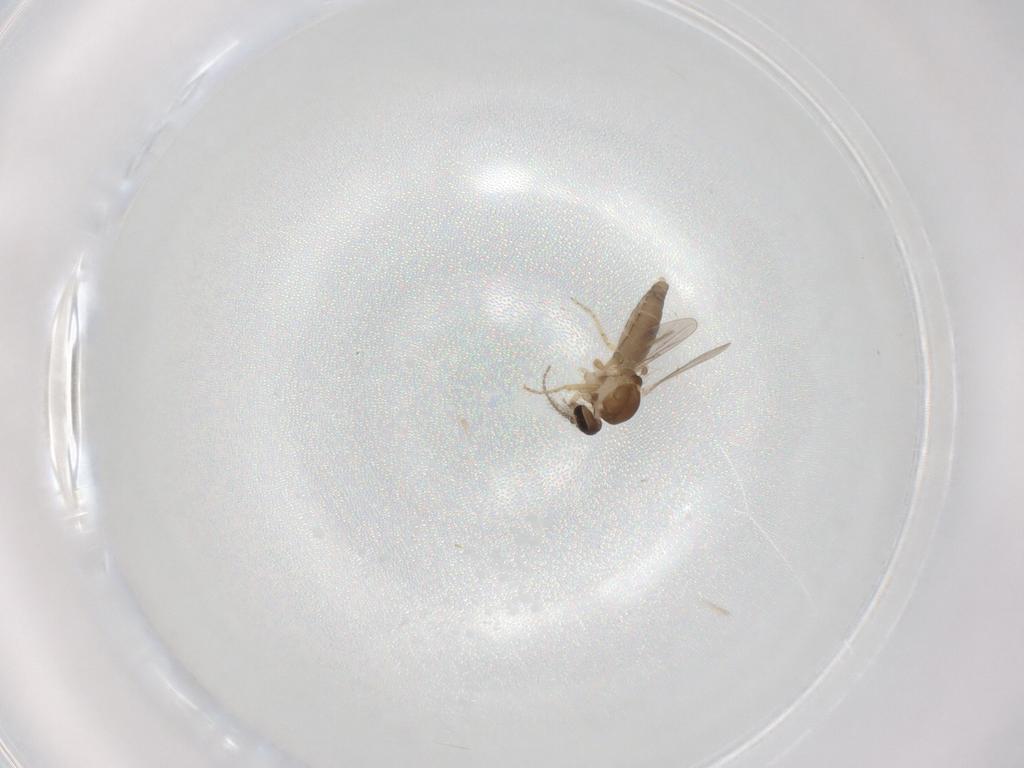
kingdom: Animalia
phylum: Arthropoda
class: Insecta
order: Diptera
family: Ceratopogonidae
